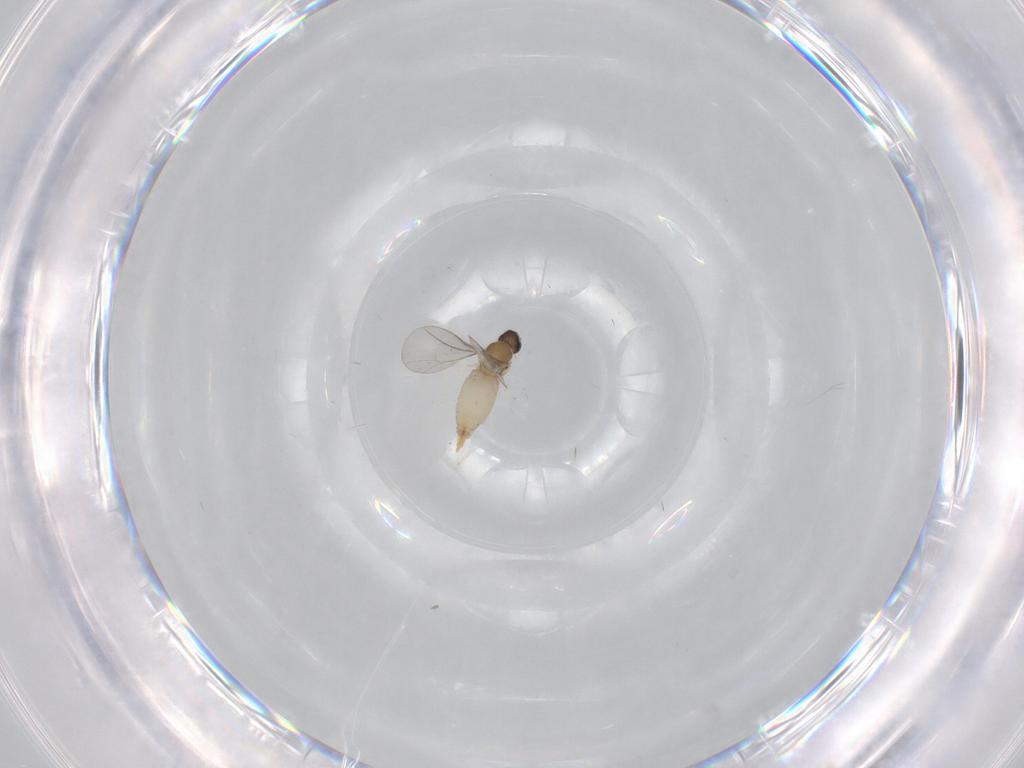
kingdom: Animalia
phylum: Arthropoda
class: Insecta
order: Diptera
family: Cecidomyiidae
